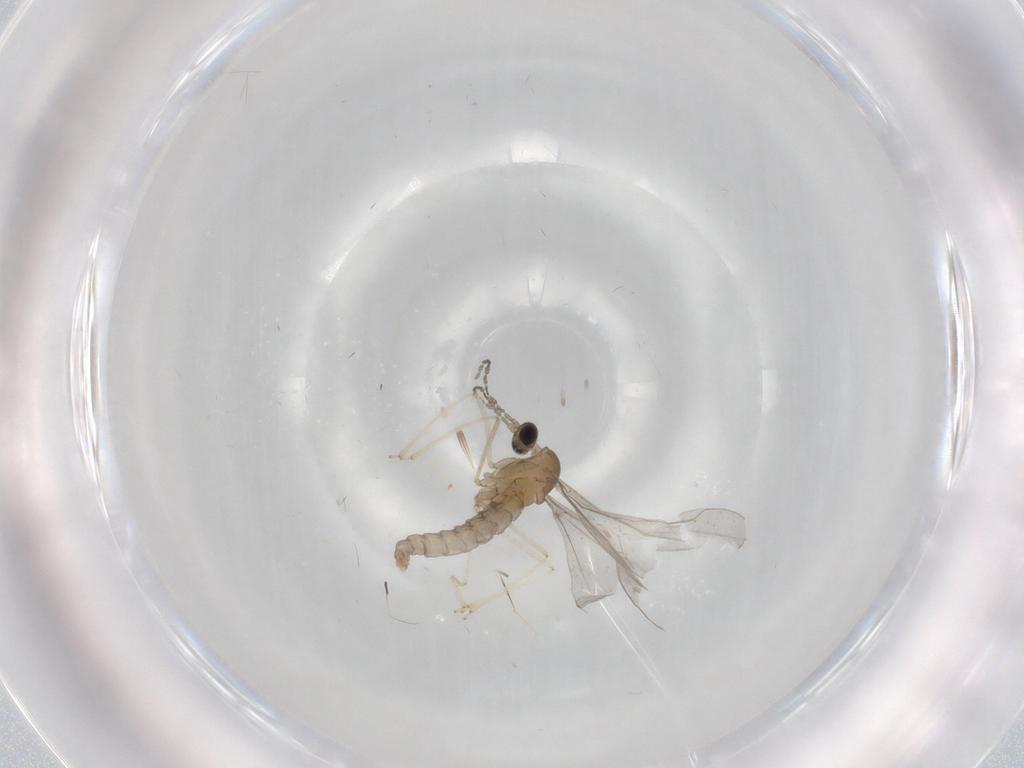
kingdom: Animalia
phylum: Arthropoda
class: Insecta
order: Diptera
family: Cecidomyiidae
